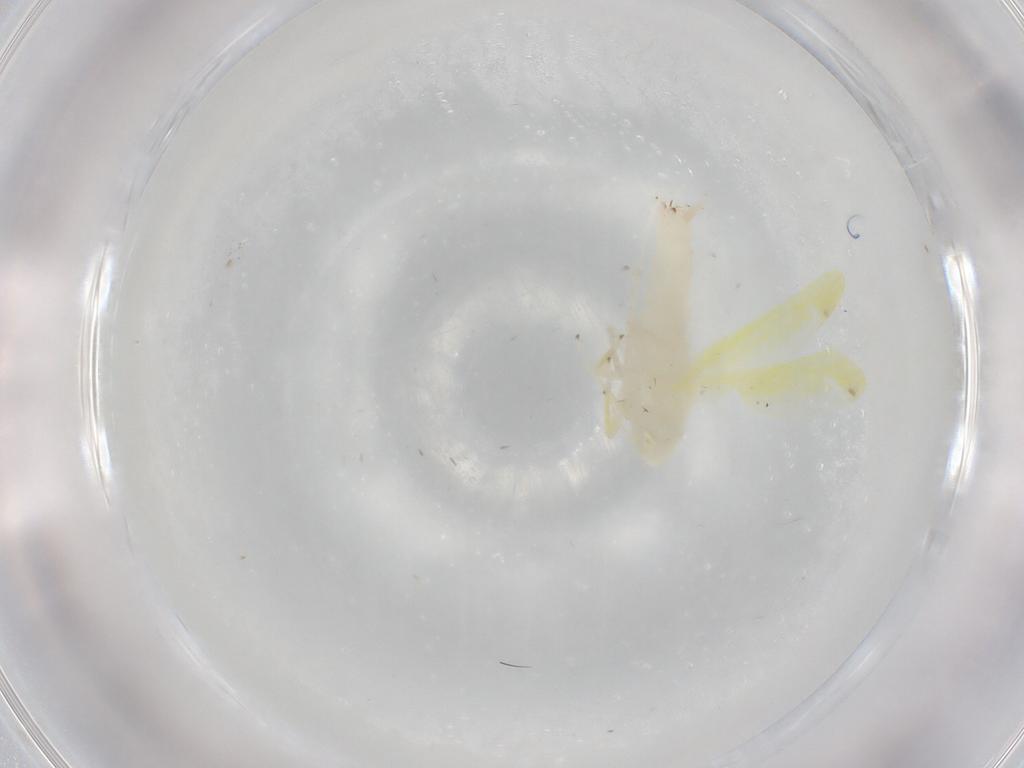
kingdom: Animalia
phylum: Arthropoda
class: Insecta
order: Hemiptera
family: Cicadellidae
